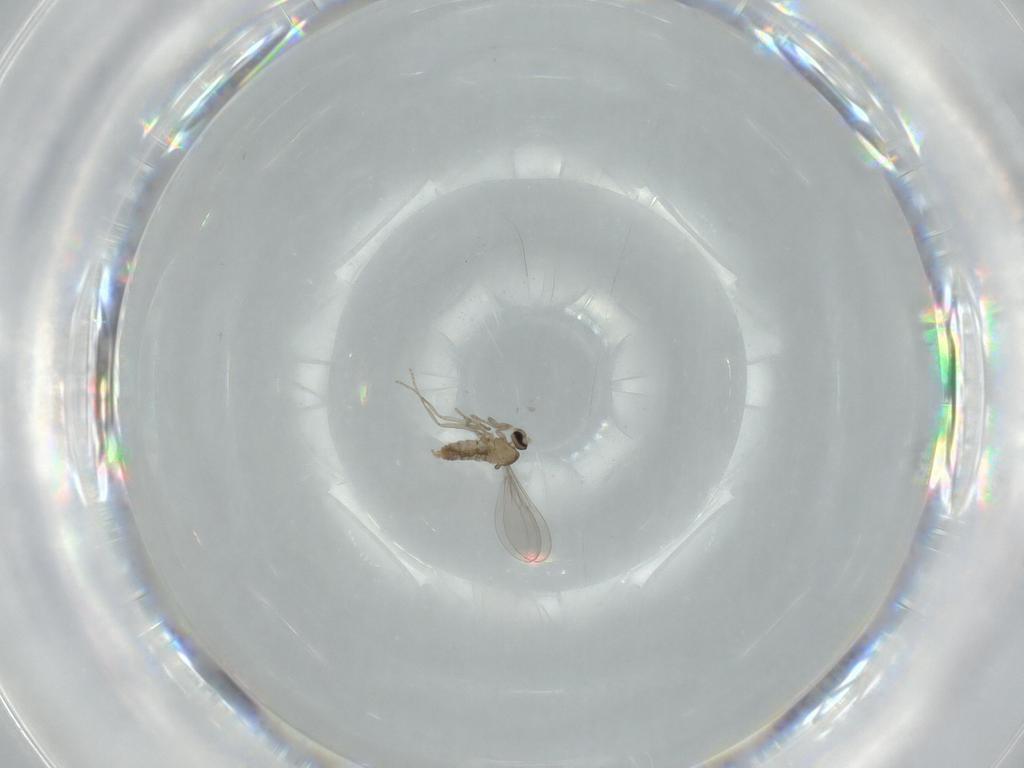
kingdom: Animalia
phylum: Arthropoda
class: Insecta
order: Diptera
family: Cecidomyiidae
